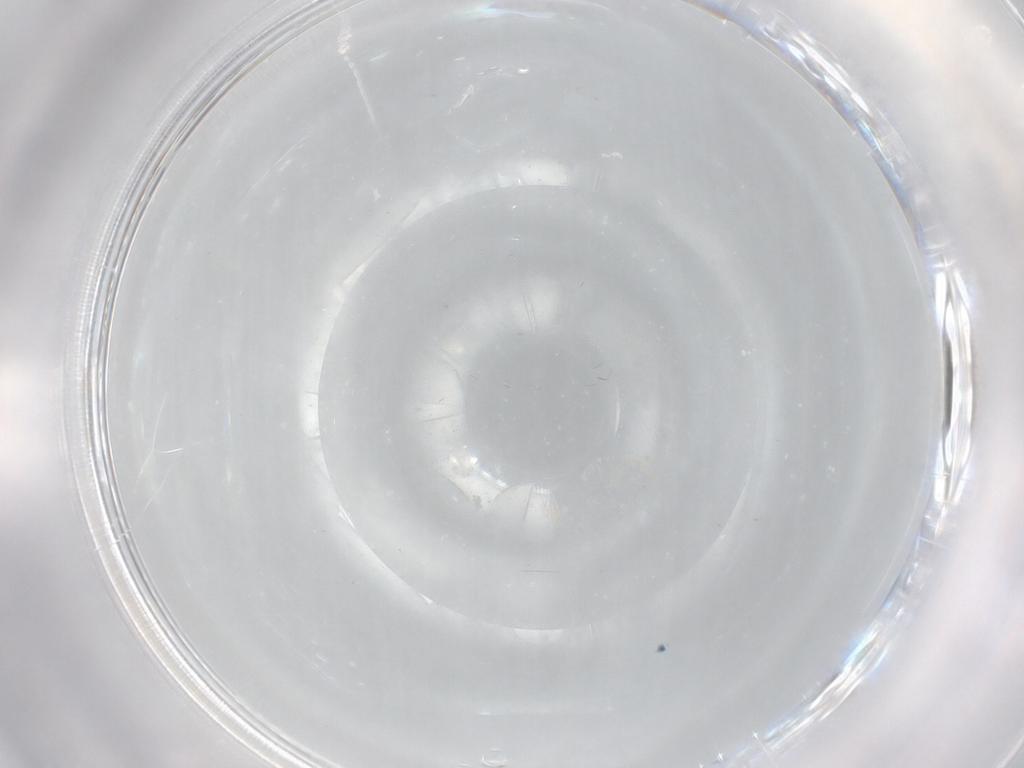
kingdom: Animalia
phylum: Arthropoda
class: Insecta
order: Diptera
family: Cecidomyiidae
